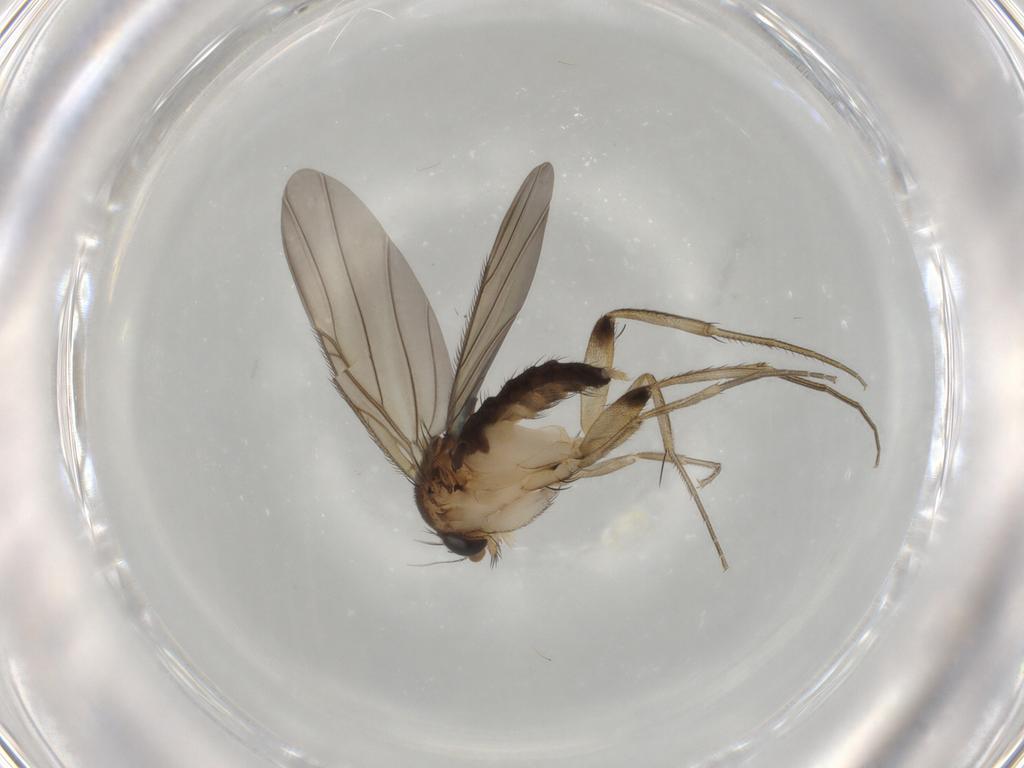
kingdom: Animalia
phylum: Arthropoda
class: Insecta
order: Diptera
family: Phoridae
